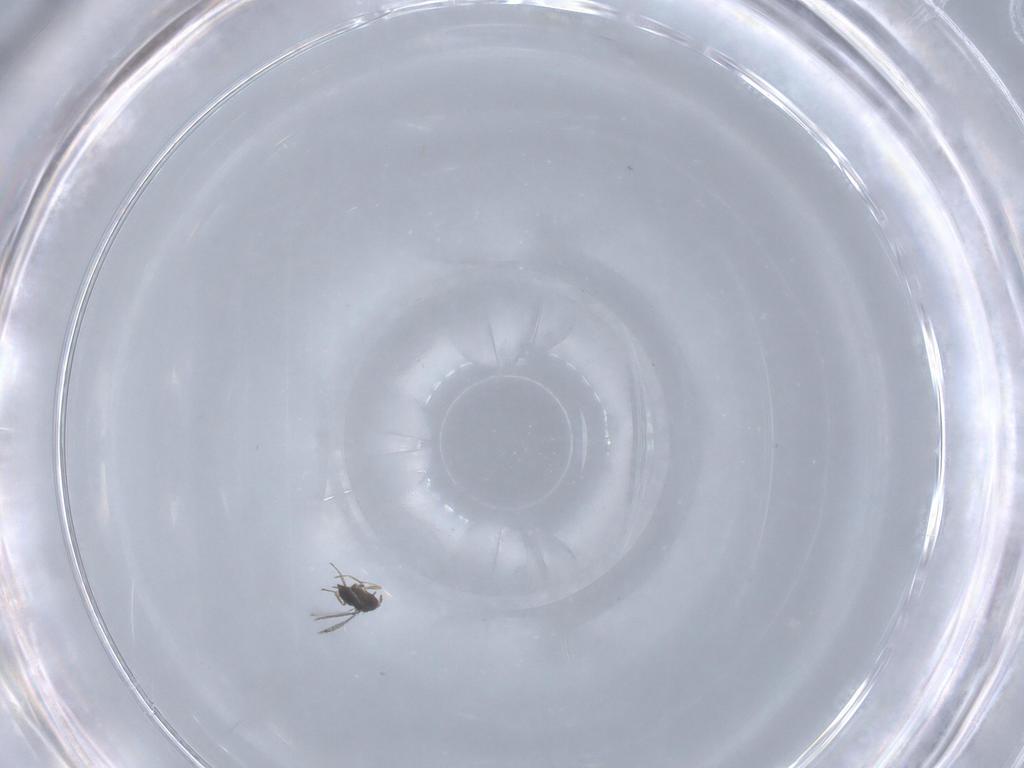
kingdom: Animalia
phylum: Arthropoda
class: Insecta
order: Hymenoptera
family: Trichogrammatidae
